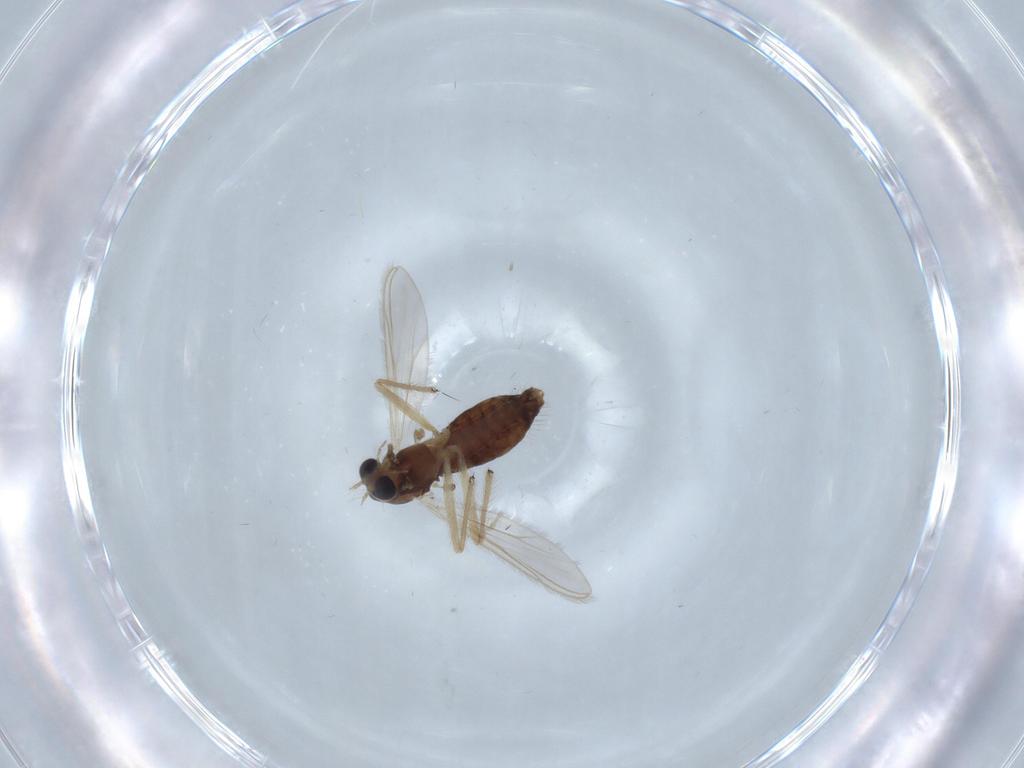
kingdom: Animalia
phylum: Arthropoda
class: Insecta
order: Diptera
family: Chironomidae
